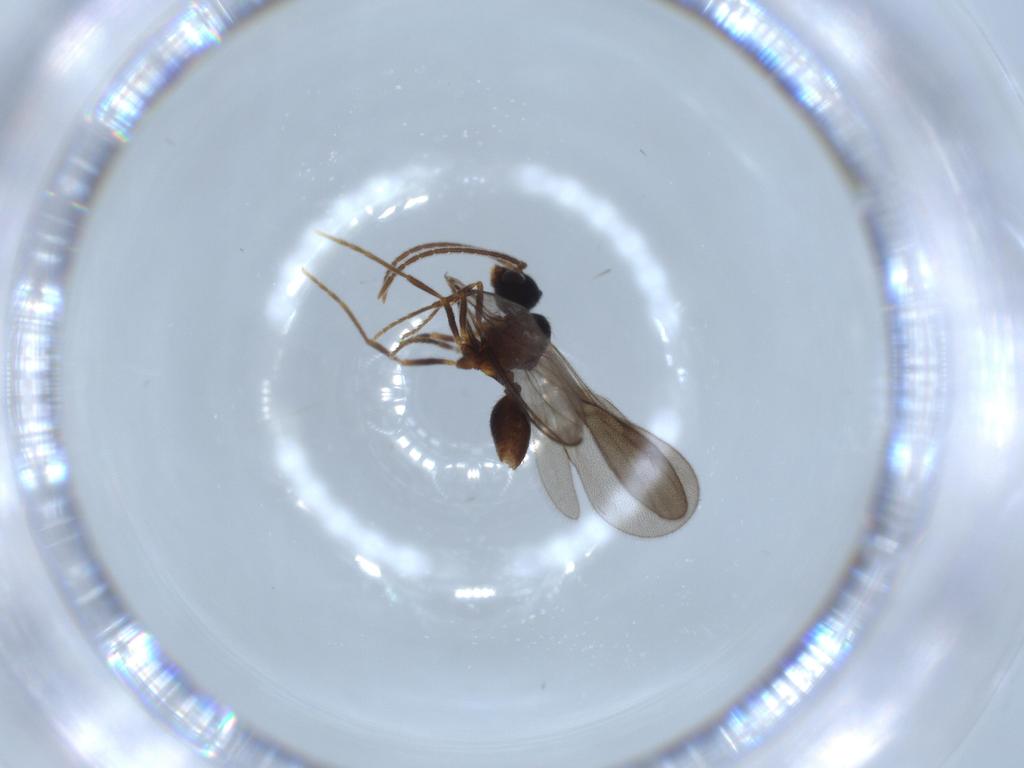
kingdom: Animalia
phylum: Arthropoda
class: Insecta
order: Hymenoptera
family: Formicidae
